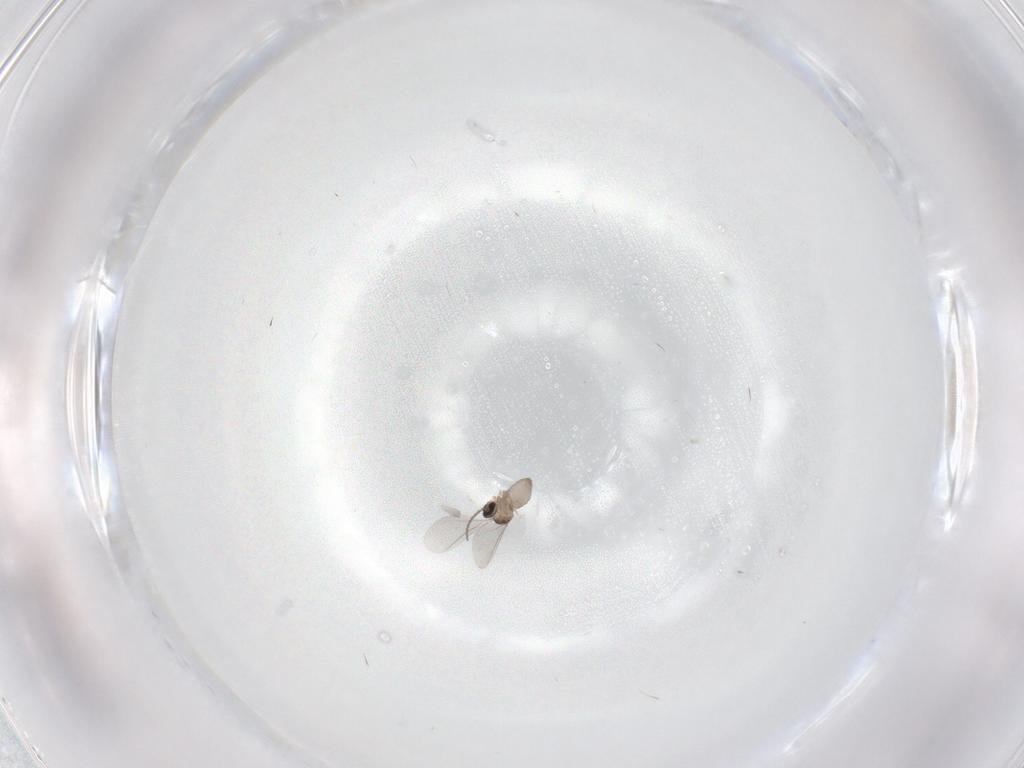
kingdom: Animalia
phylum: Arthropoda
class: Insecta
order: Diptera
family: Cecidomyiidae
